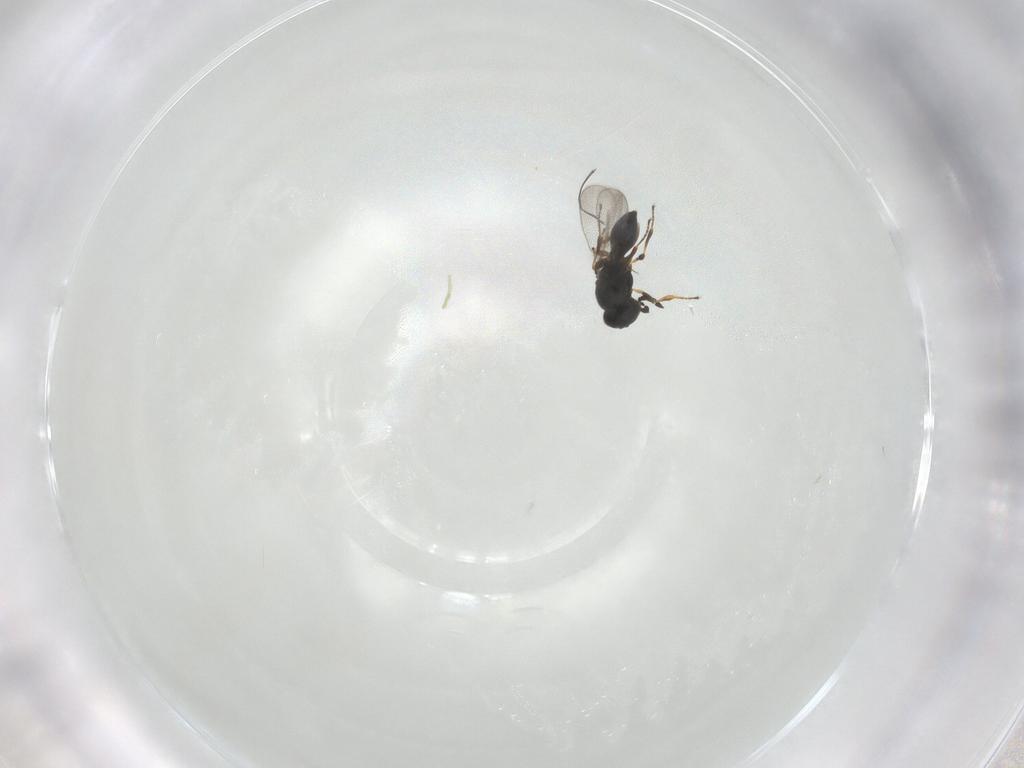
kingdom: Animalia
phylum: Arthropoda
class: Insecta
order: Hymenoptera
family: Platygastridae
